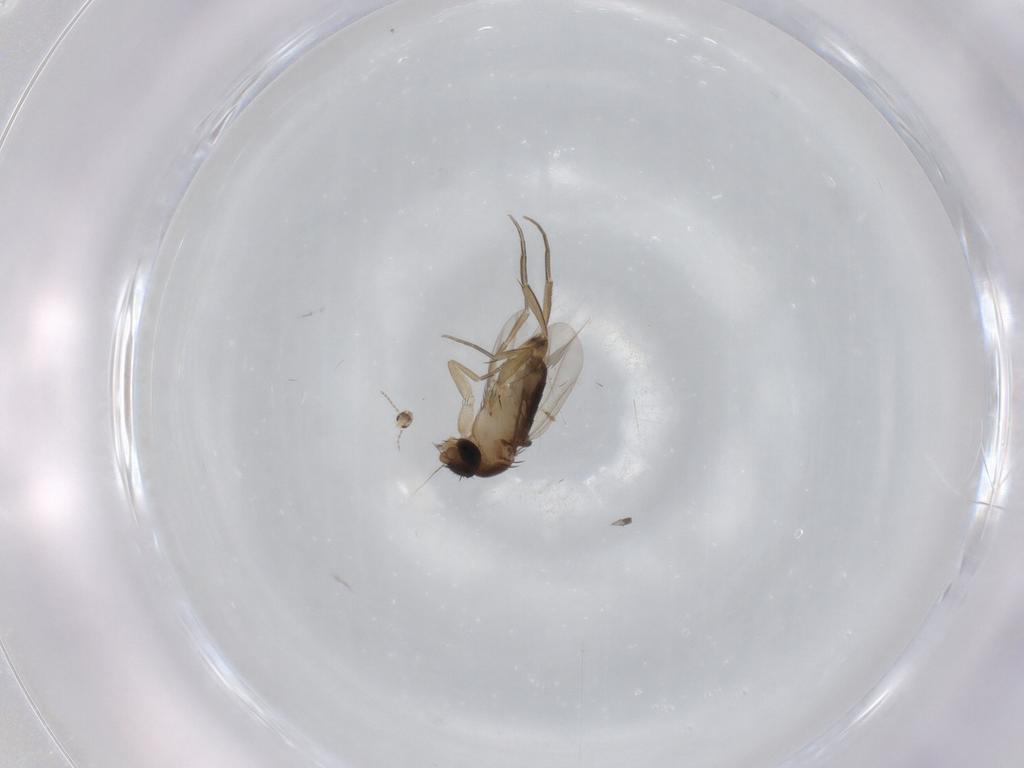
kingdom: Animalia
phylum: Arthropoda
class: Insecta
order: Diptera
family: Phoridae
